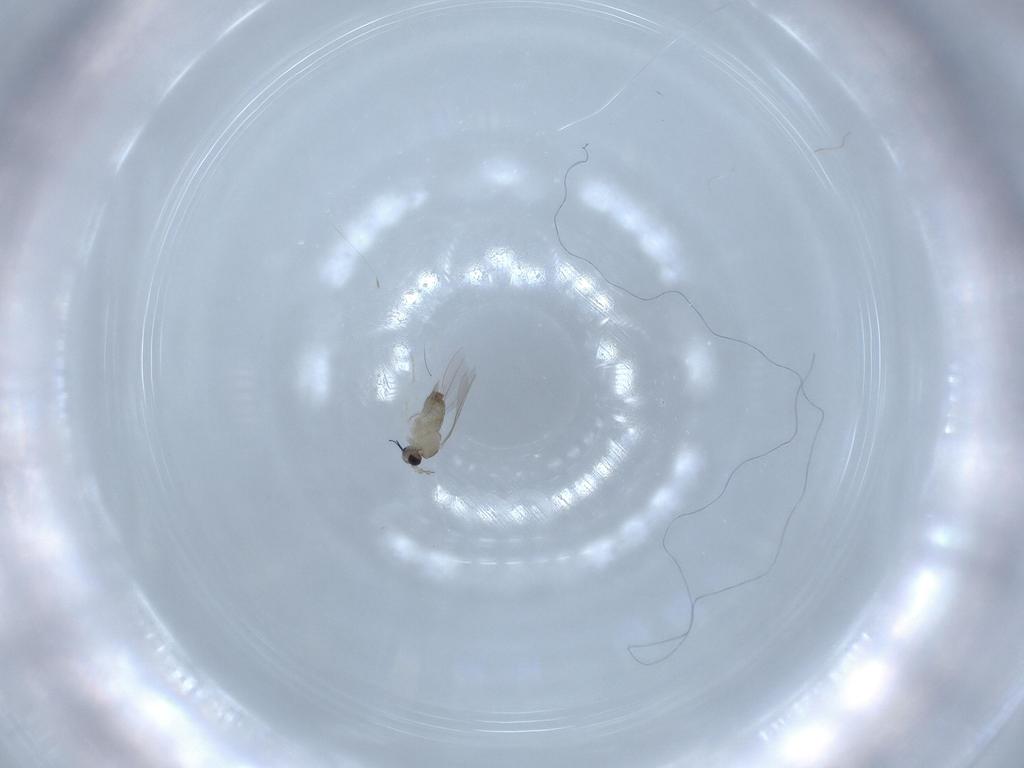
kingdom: Animalia
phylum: Arthropoda
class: Insecta
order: Diptera
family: Cecidomyiidae
